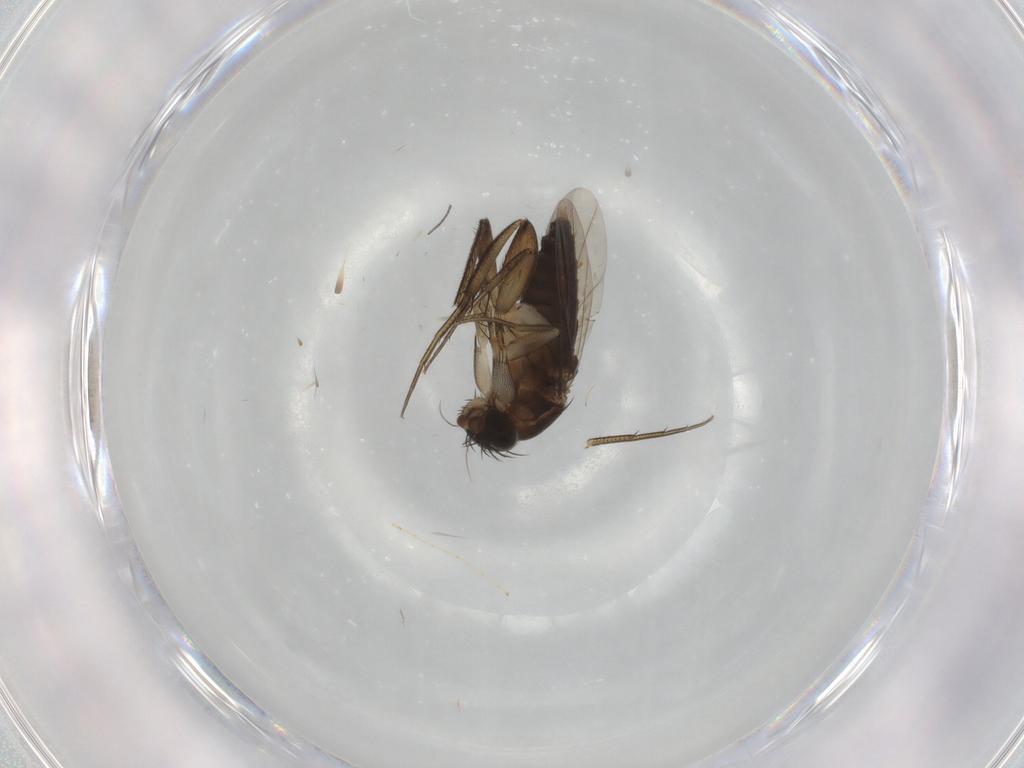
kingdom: Animalia
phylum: Arthropoda
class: Insecta
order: Diptera
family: Phoridae
